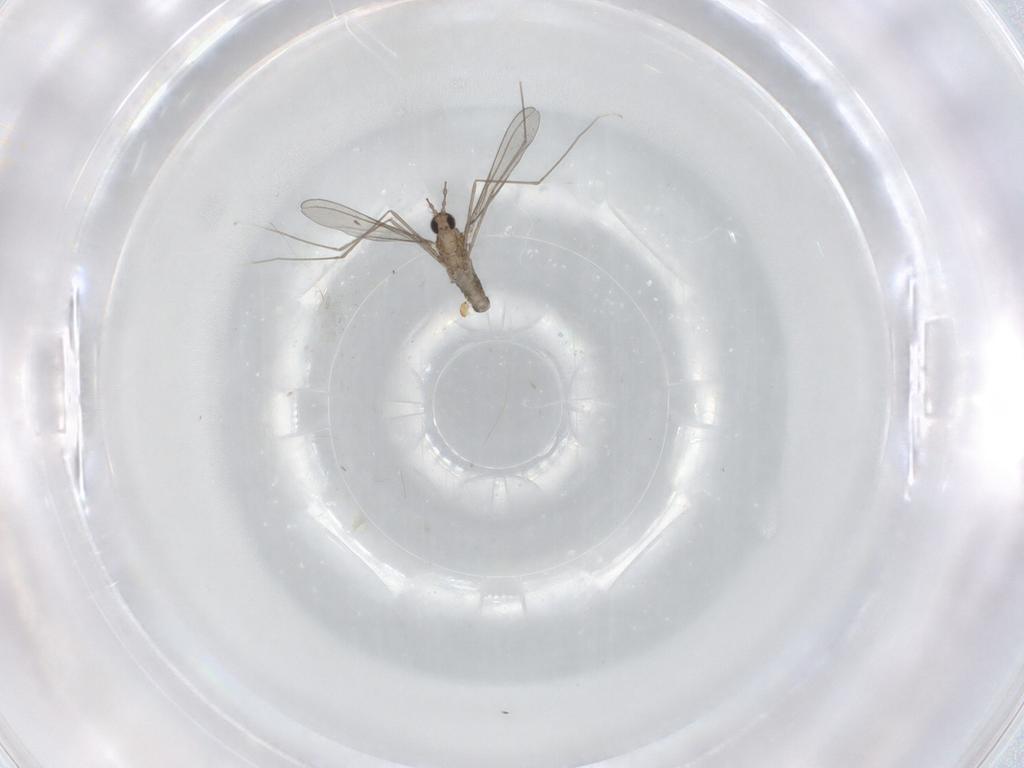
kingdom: Animalia
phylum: Arthropoda
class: Insecta
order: Diptera
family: Cecidomyiidae
